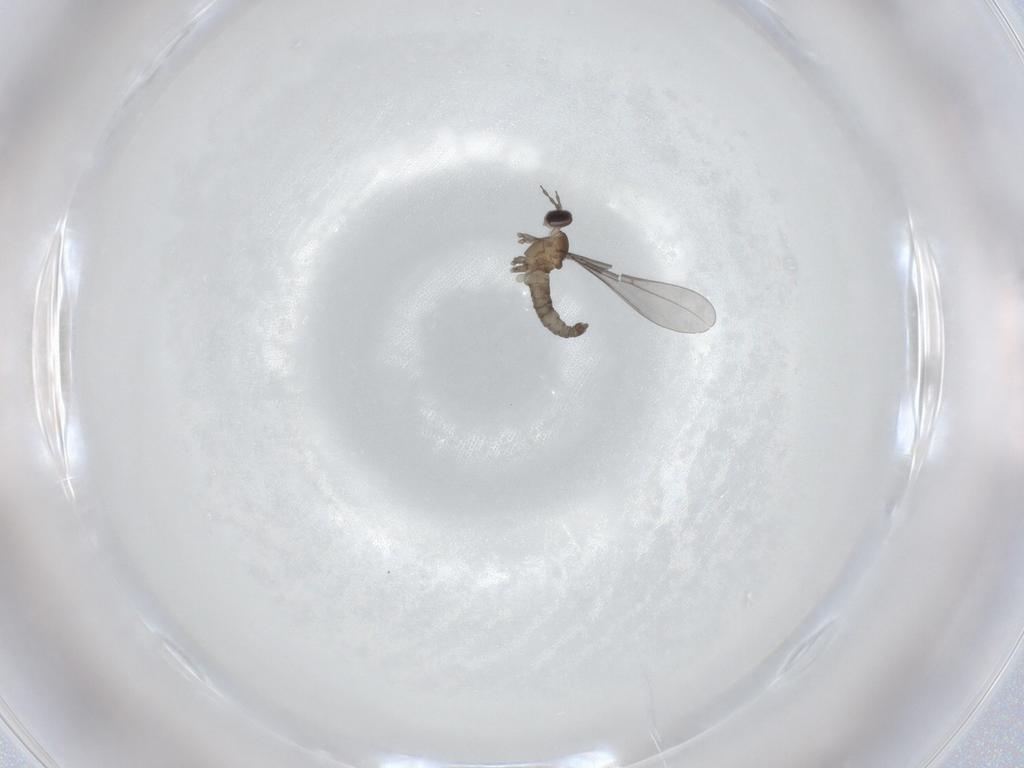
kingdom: Animalia
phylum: Arthropoda
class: Insecta
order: Diptera
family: Cecidomyiidae
